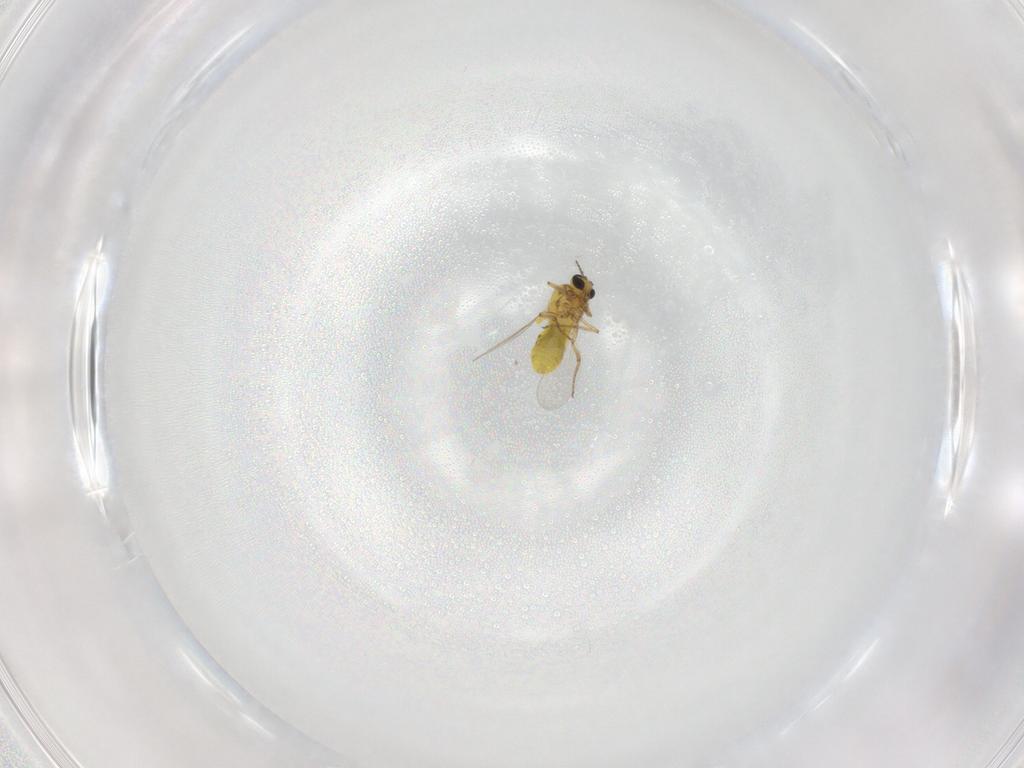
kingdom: Animalia
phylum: Arthropoda
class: Insecta
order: Diptera
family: Ceratopogonidae
